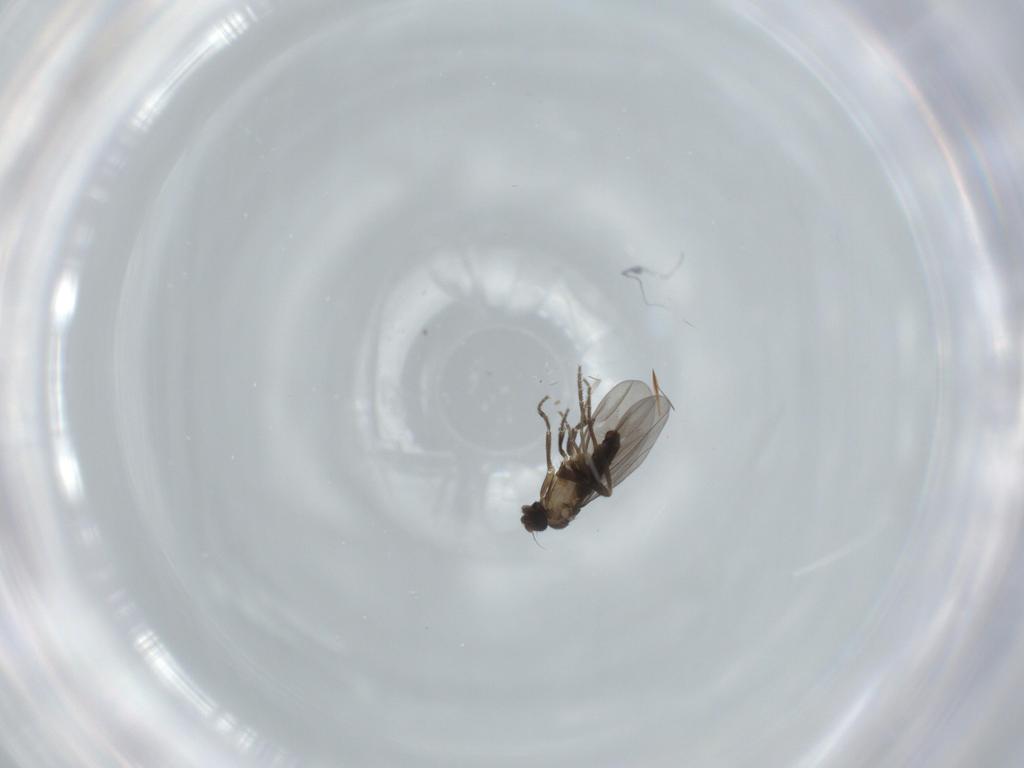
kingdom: Animalia
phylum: Arthropoda
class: Insecta
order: Diptera
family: Phoridae
